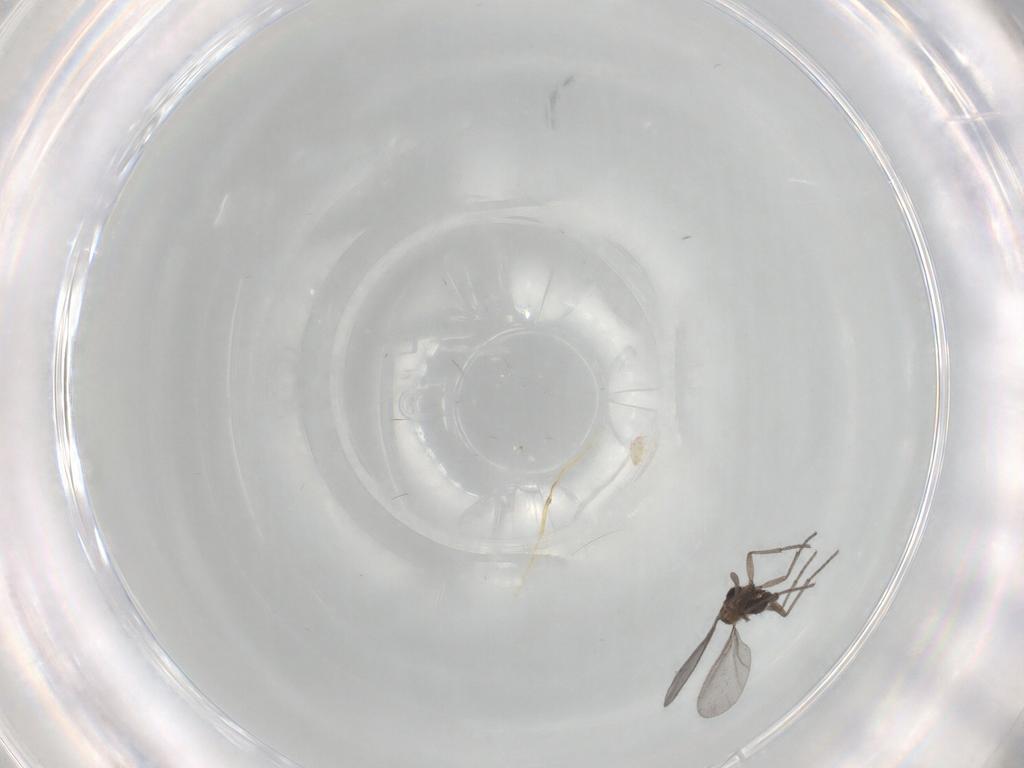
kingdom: Animalia
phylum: Arthropoda
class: Insecta
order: Diptera
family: Sciaridae
